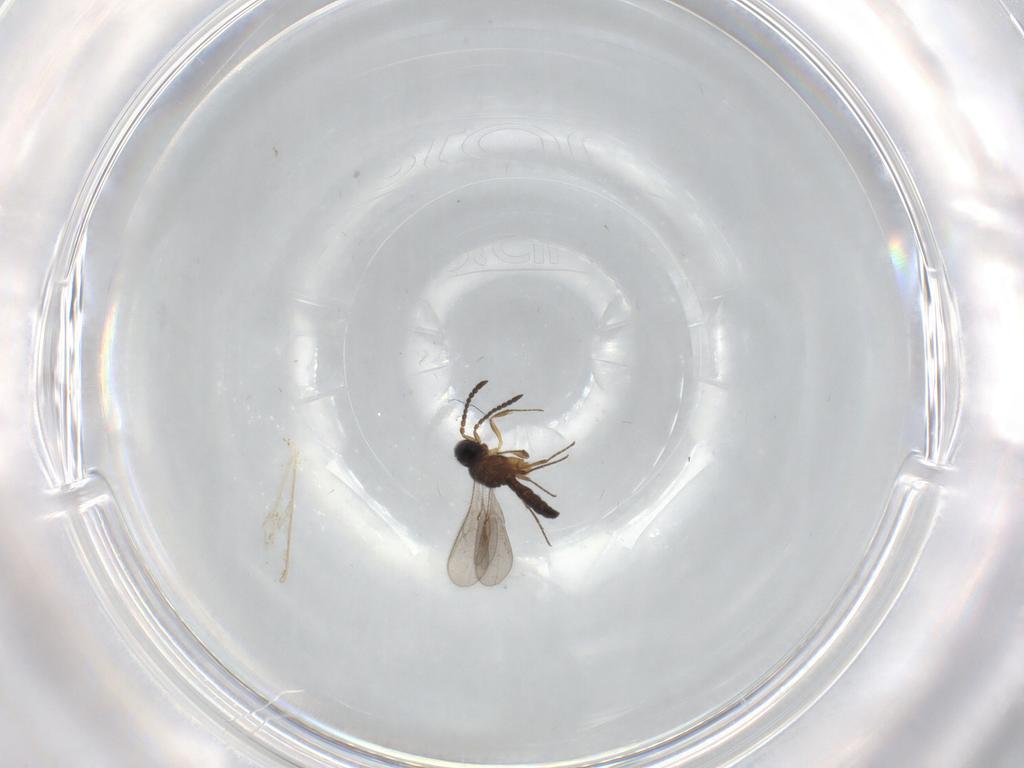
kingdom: Animalia
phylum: Arthropoda
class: Insecta
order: Hymenoptera
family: Scelionidae
